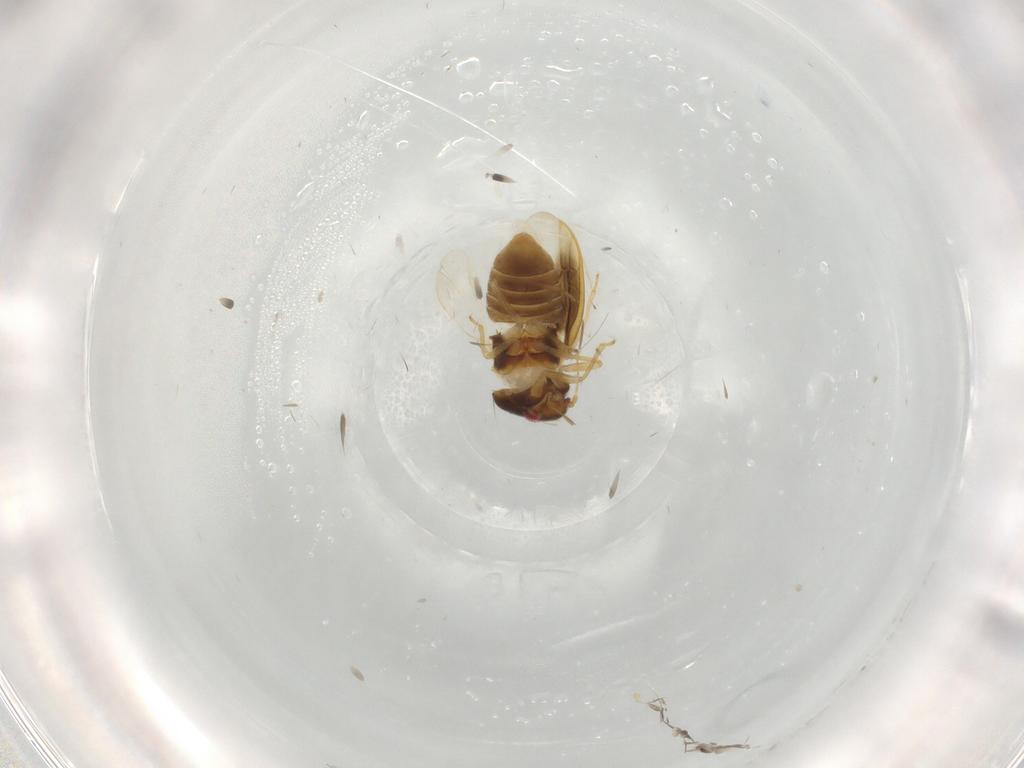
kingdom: Animalia
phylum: Arthropoda
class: Insecta
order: Hemiptera
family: Schizopteridae
